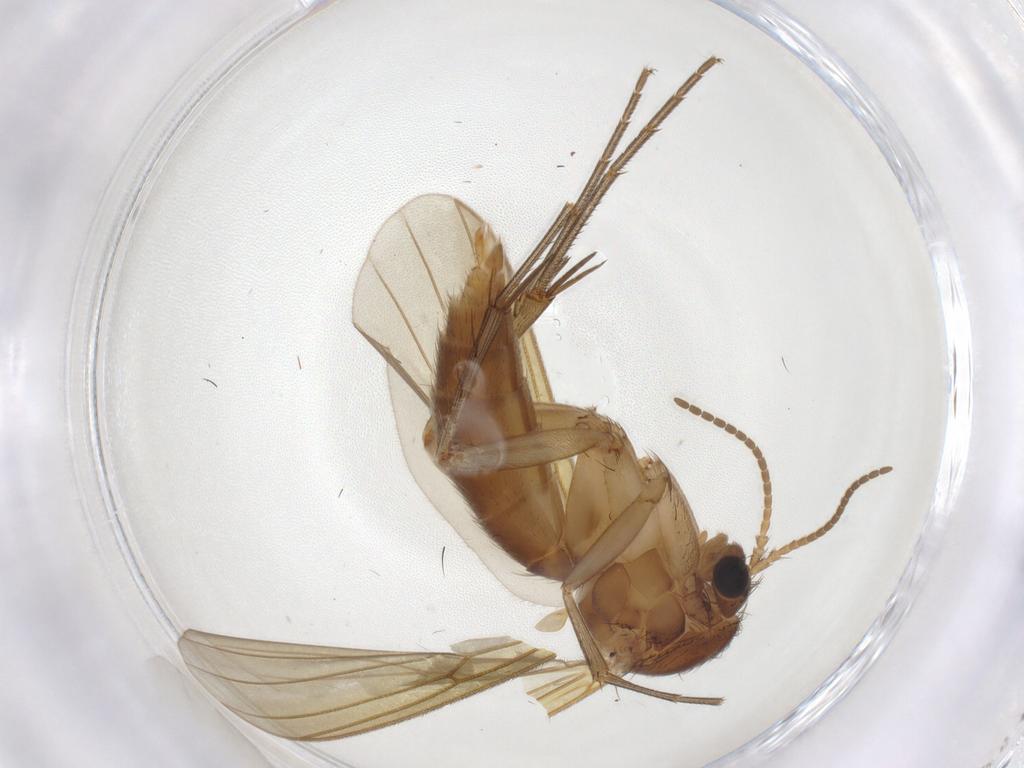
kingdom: Animalia
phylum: Arthropoda
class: Insecta
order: Diptera
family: Mycetophilidae
